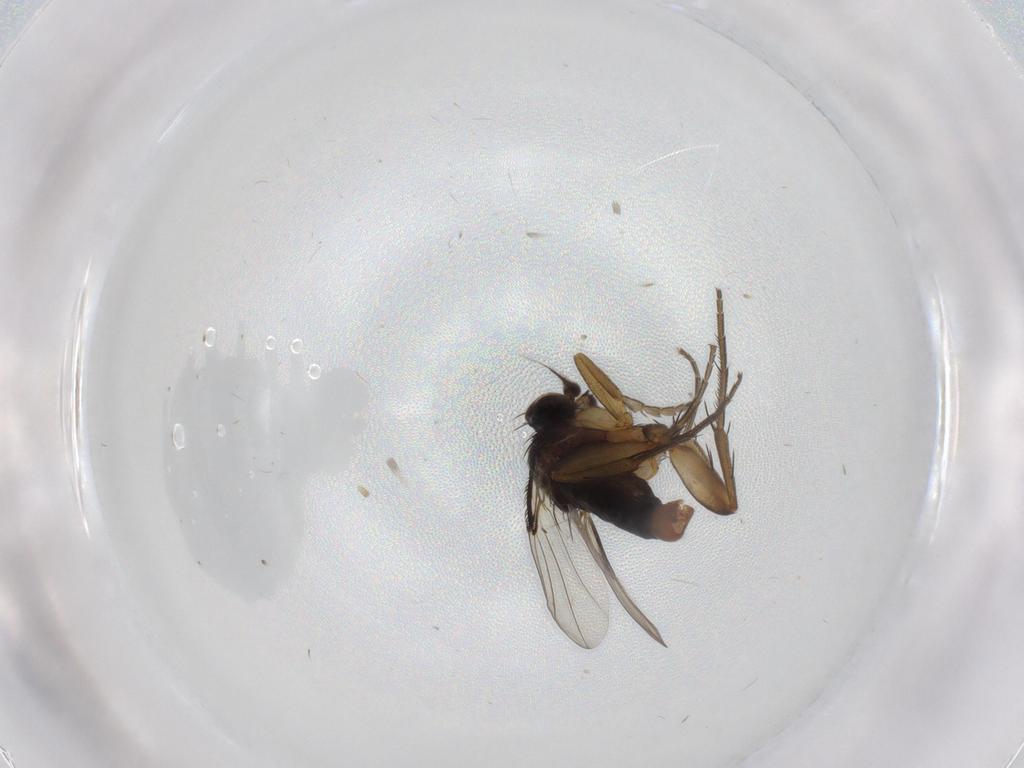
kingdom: Animalia
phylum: Arthropoda
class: Insecta
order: Diptera
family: Phoridae
